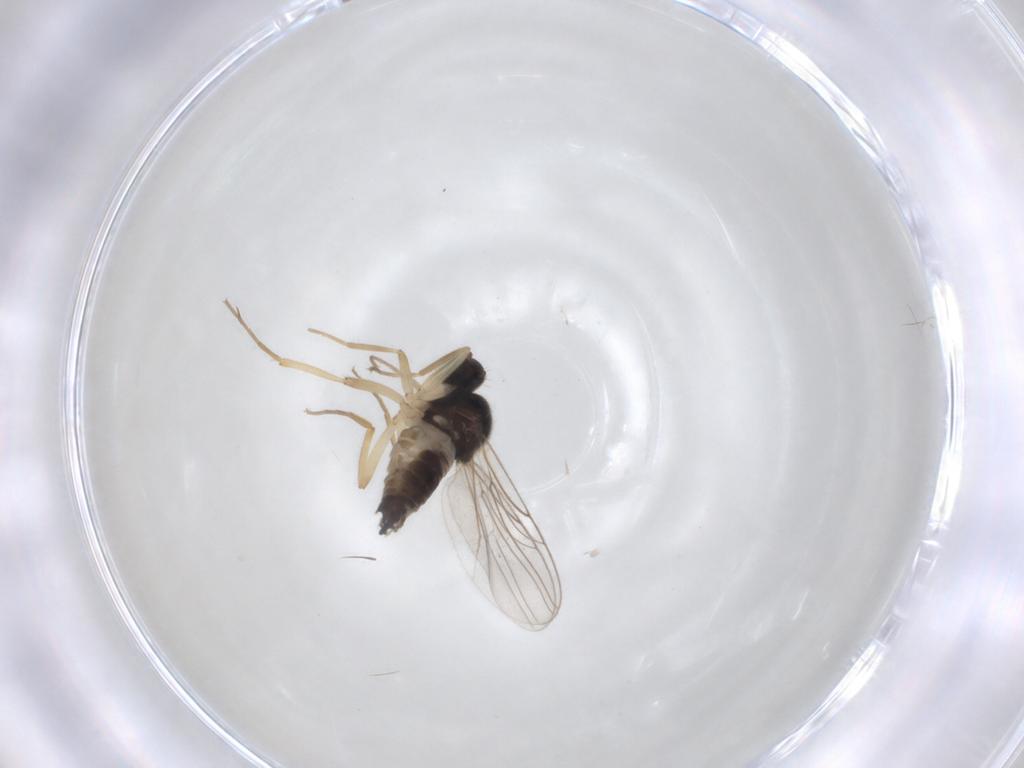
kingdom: Animalia
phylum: Arthropoda
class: Insecta
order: Diptera
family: Hybotidae
